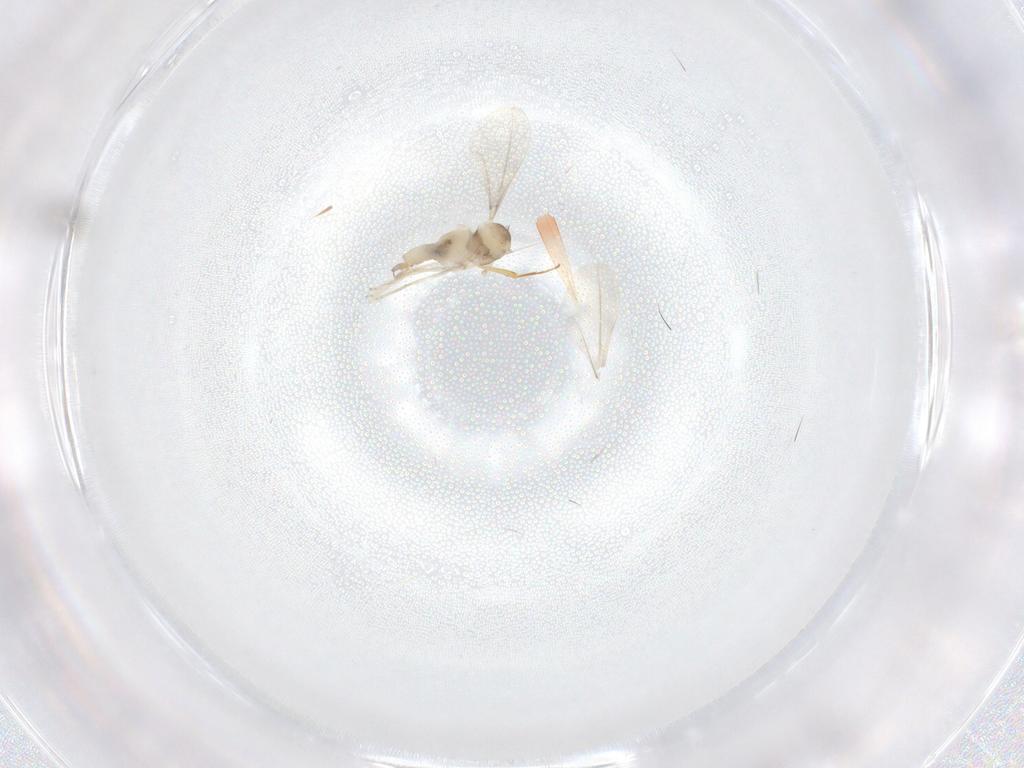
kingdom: Animalia
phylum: Arthropoda
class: Insecta
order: Diptera
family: Cecidomyiidae
